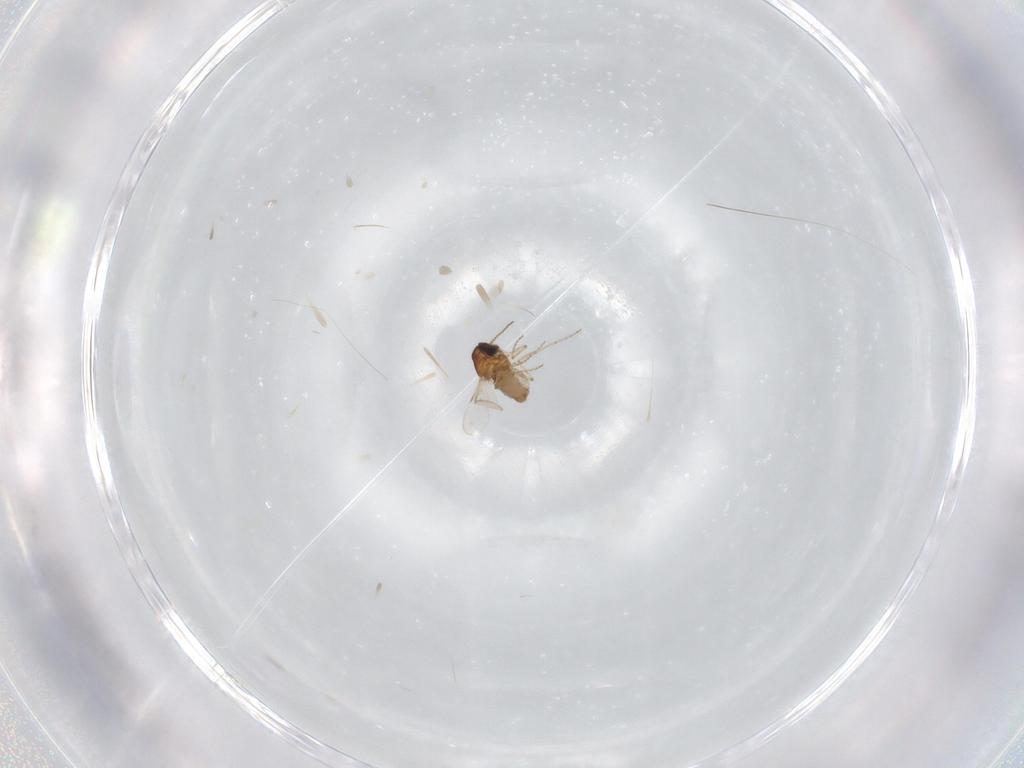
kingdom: Animalia
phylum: Arthropoda
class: Insecta
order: Diptera
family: Ceratopogonidae
